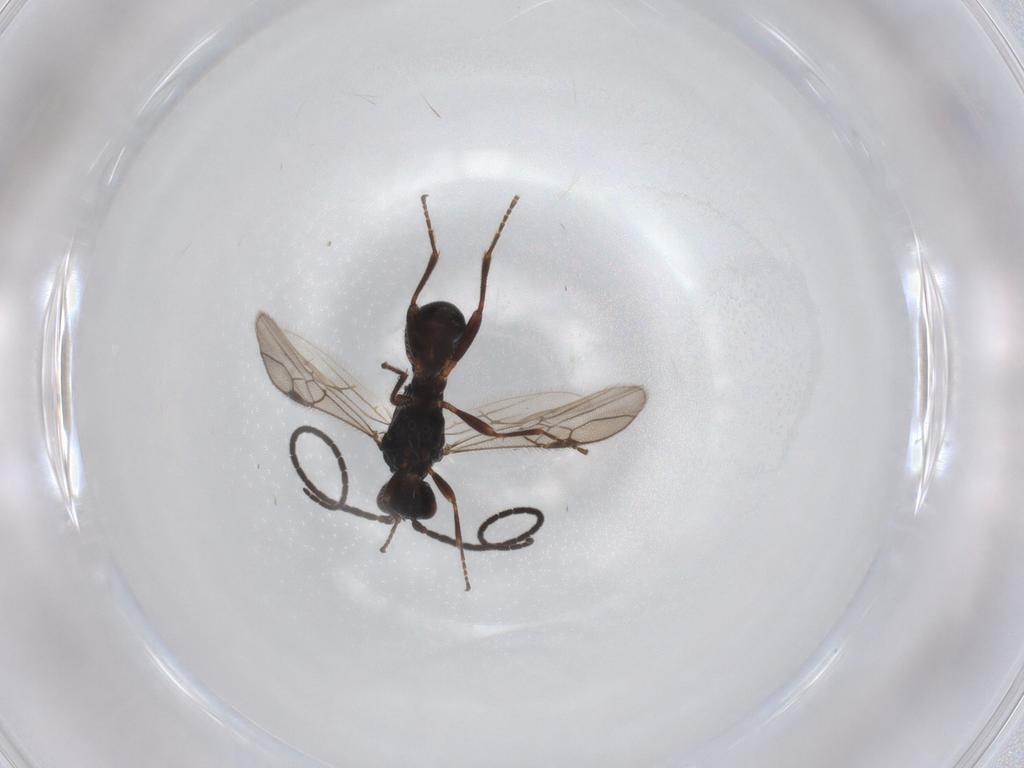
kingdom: Animalia
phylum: Arthropoda
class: Insecta
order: Hymenoptera
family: Braconidae
